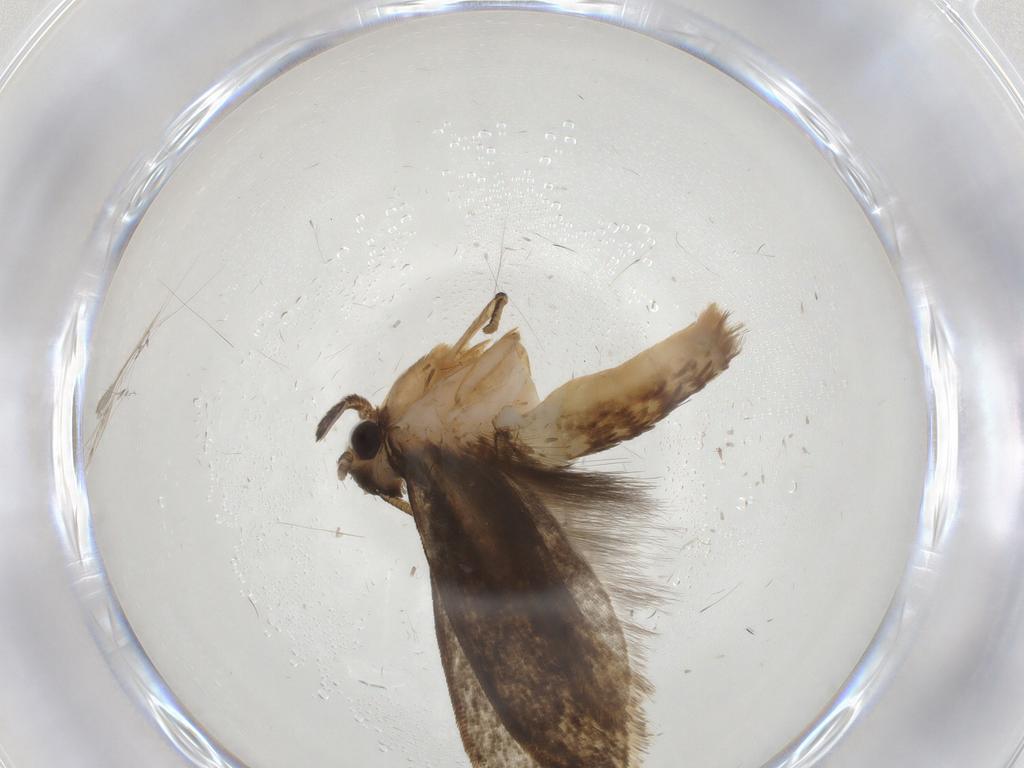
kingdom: Animalia
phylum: Arthropoda
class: Insecta
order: Lepidoptera
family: Gelechiidae
